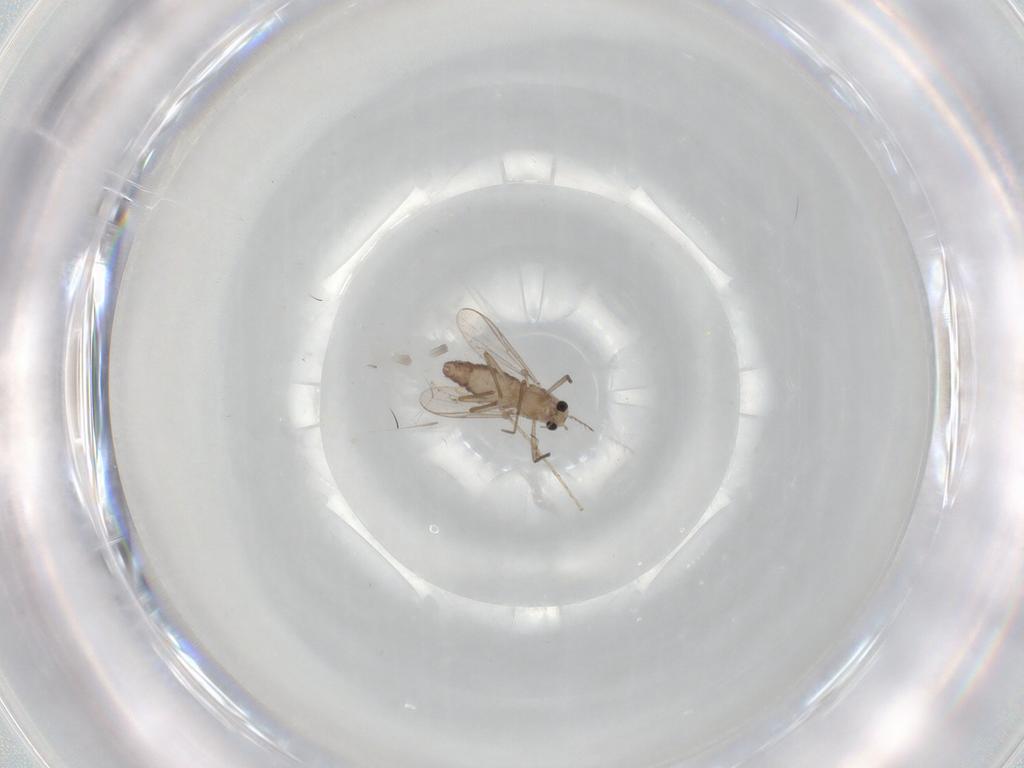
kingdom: Animalia
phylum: Arthropoda
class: Insecta
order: Diptera
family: Chironomidae
